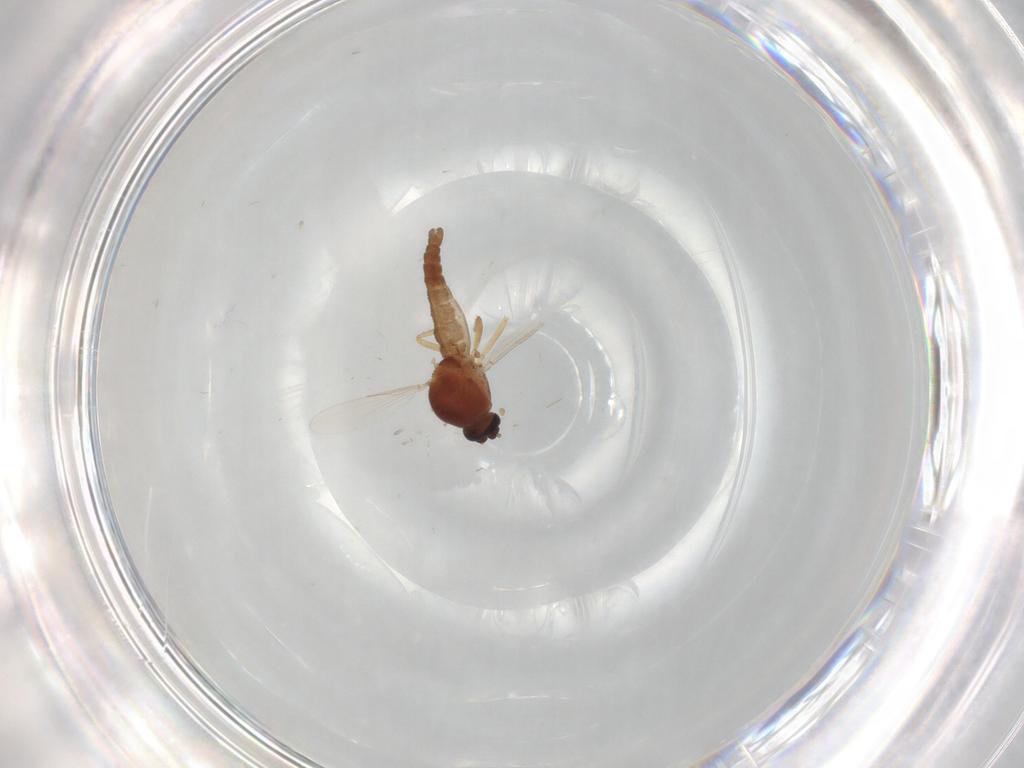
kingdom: Animalia
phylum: Arthropoda
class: Insecta
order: Diptera
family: Ceratopogonidae
